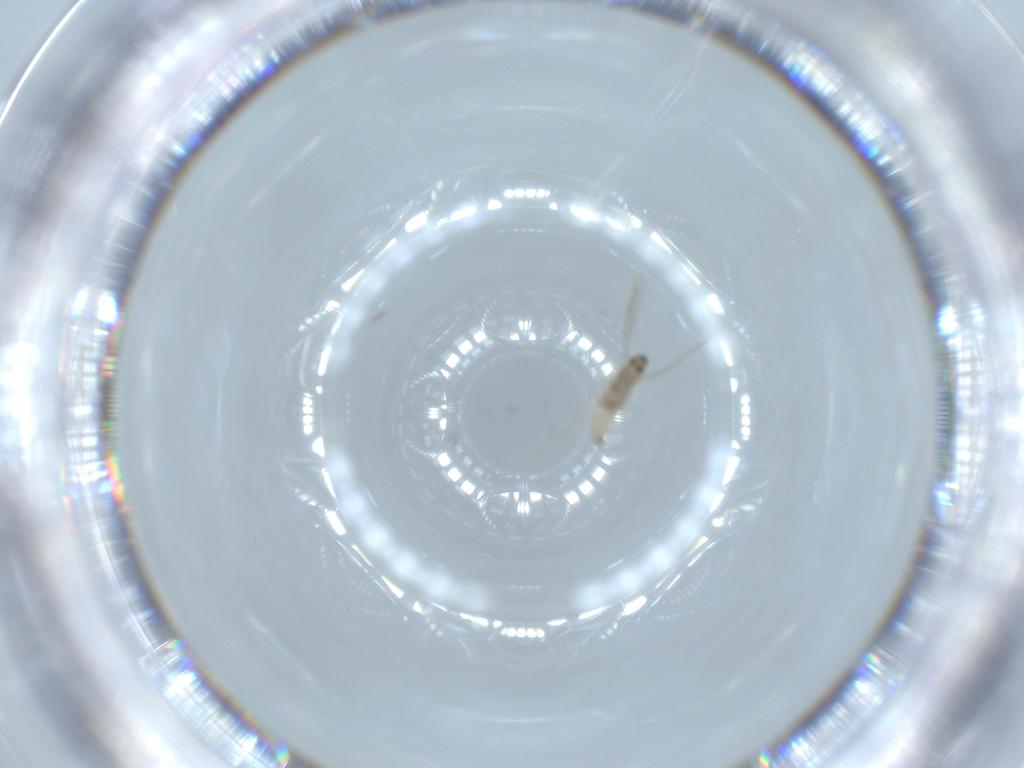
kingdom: Animalia
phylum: Arthropoda
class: Insecta
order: Diptera
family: Cecidomyiidae
